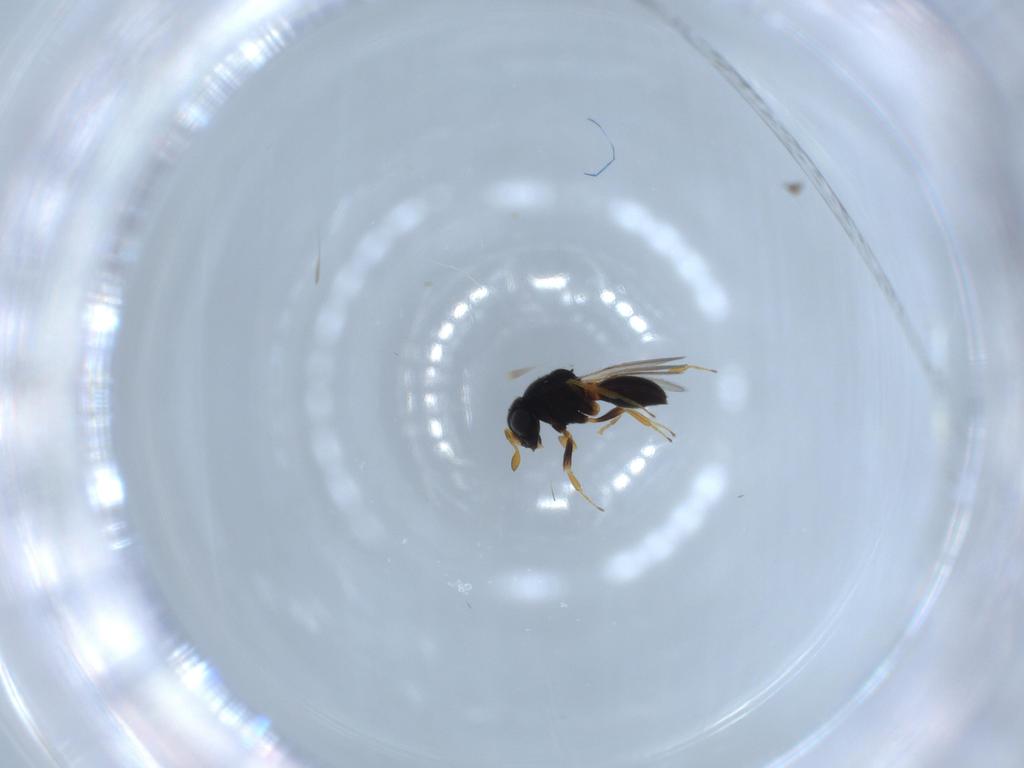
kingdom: Animalia
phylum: Arthropoda
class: Insecta
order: Hymenoptera
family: Scelionidae
